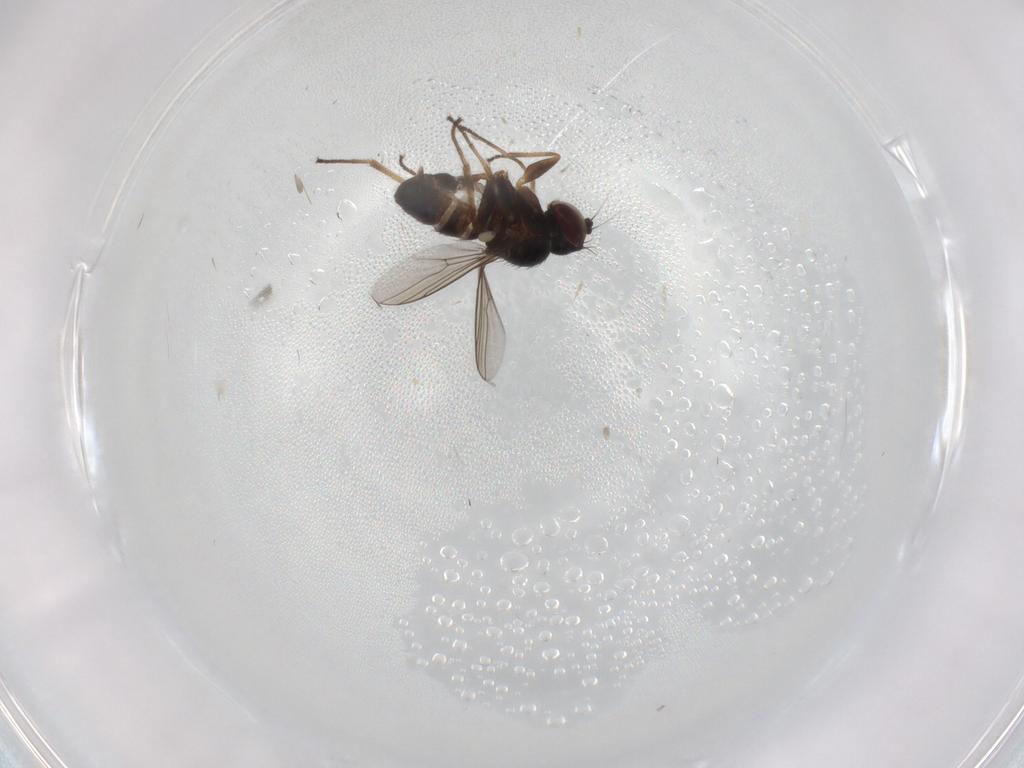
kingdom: Animalia
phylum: Arthropoda
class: Insecta
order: Diptera
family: Dolichopodidae
